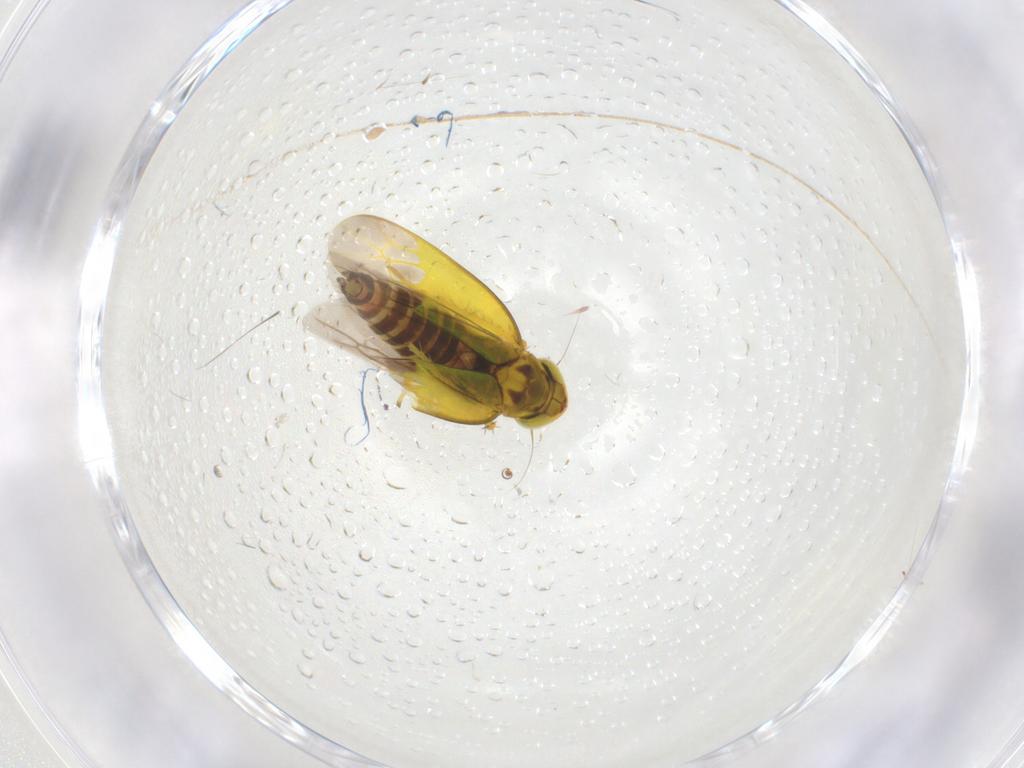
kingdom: Animalia
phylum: Arthropoda
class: Insecta
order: Hemiptera
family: Cicadellidae
